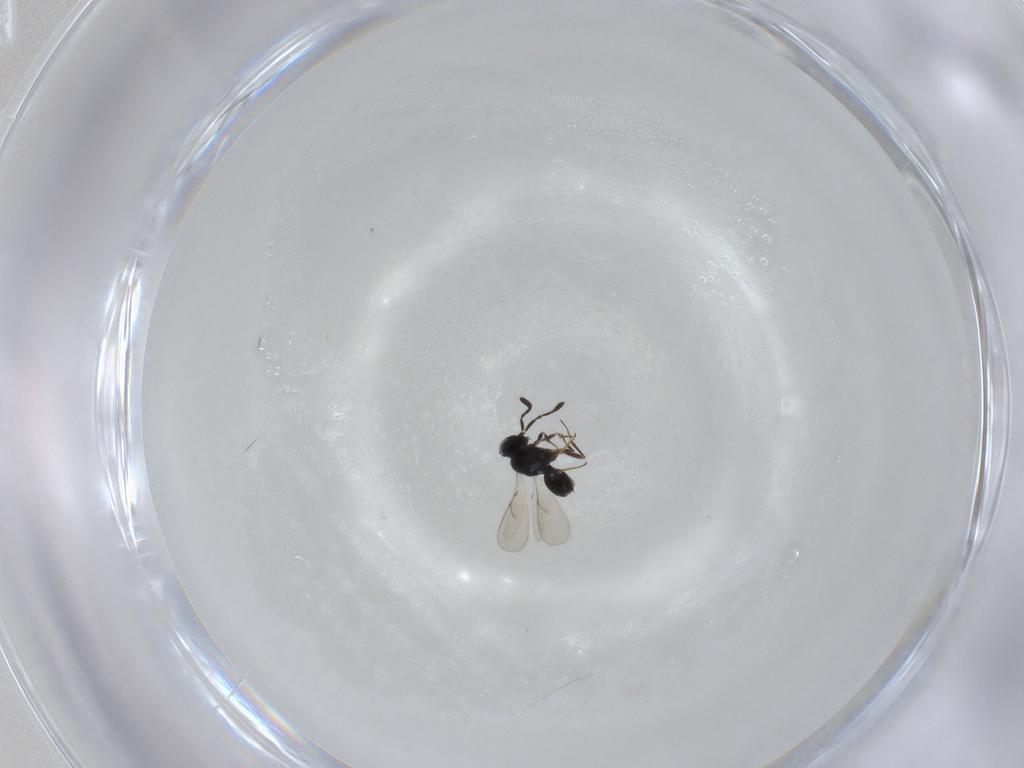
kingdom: Animalia
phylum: Arthropoda
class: Insecta
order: Hymenoptera
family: Scelionidae
